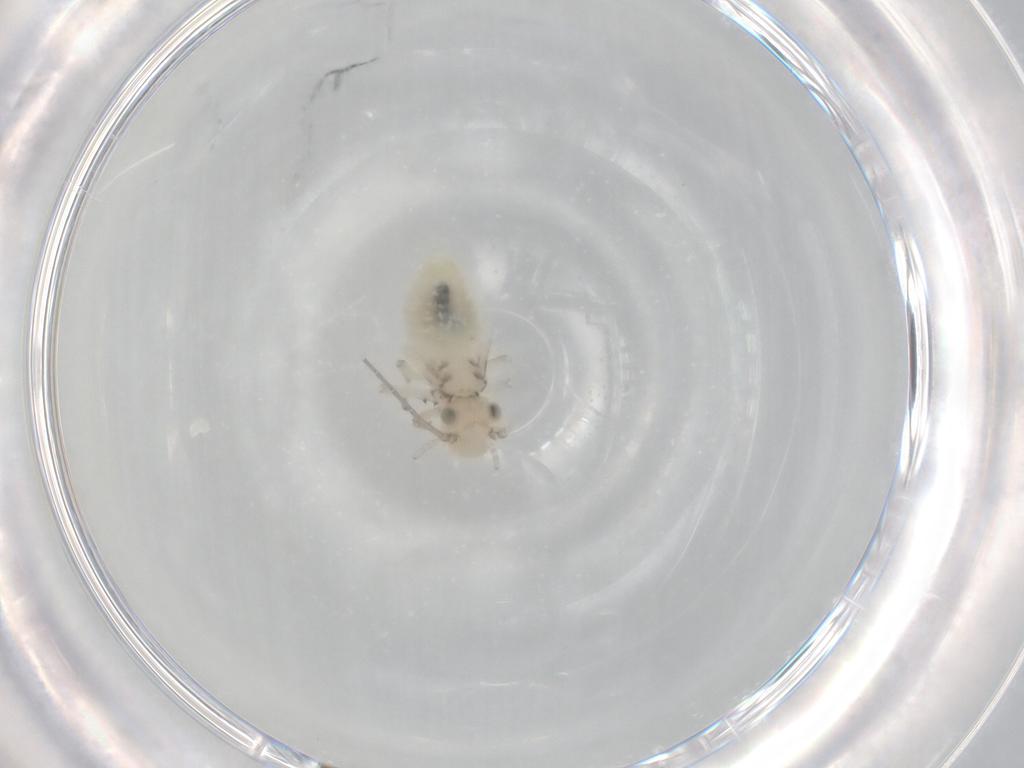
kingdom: Animalia
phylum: Arthropoda
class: Insecta
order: Psocodea
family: Caeciliusidae
